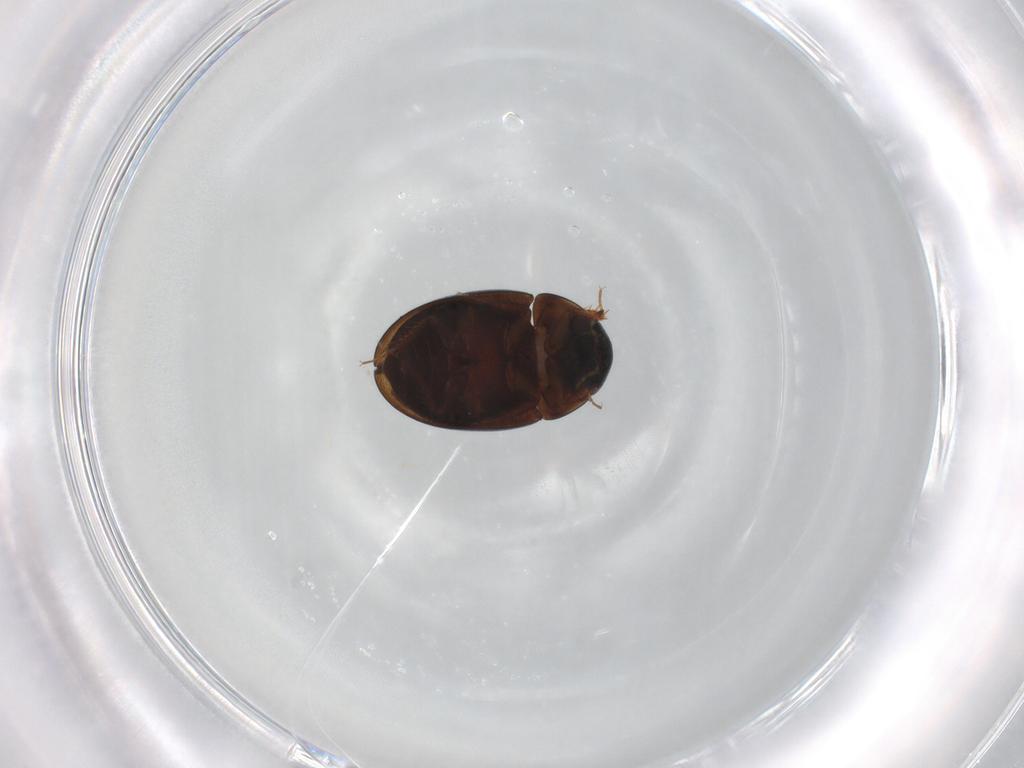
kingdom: Animalia
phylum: Arthropoda
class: Insecta
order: Coleoptera
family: Hydrophilidae
